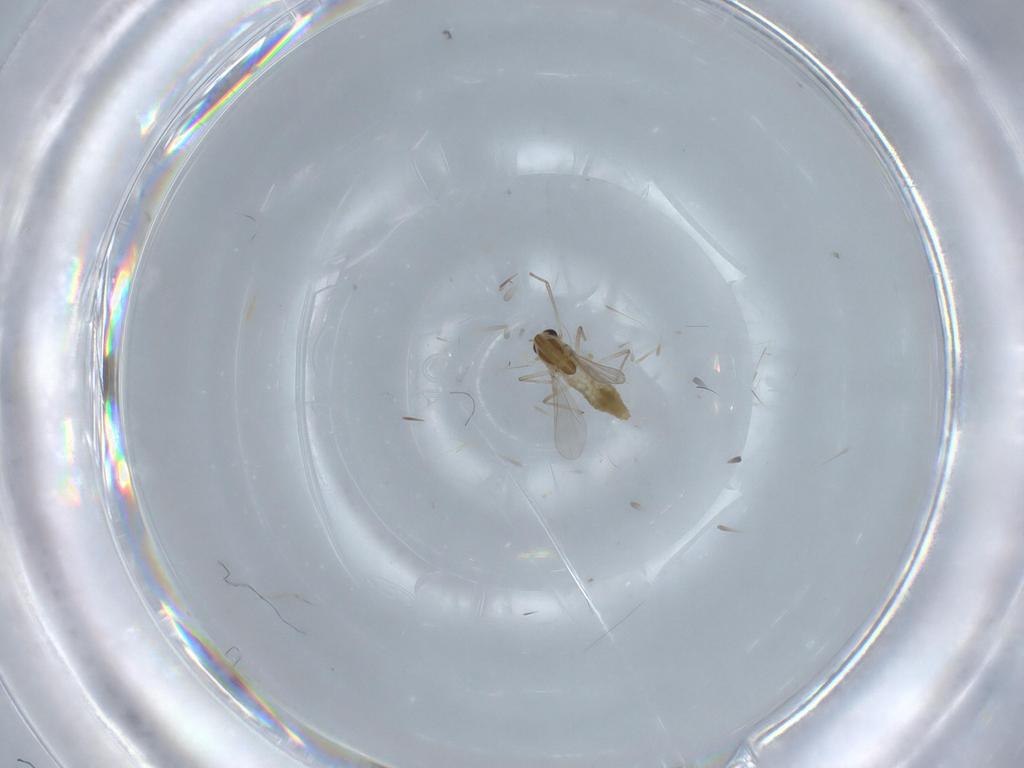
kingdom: Animalia
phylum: Arthropoda
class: Insecta
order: Diptera
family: Chironomidae
